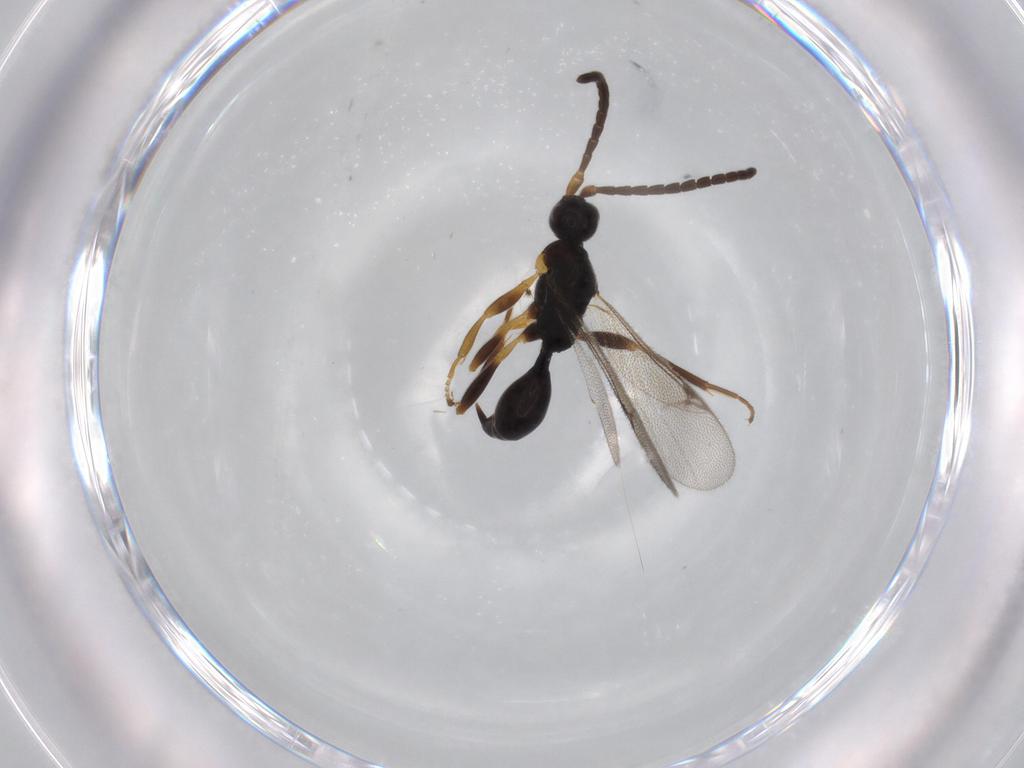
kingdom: Animalia
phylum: Arthropoda
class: Insecta
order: Hymenoptera
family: Proctotrupidae
